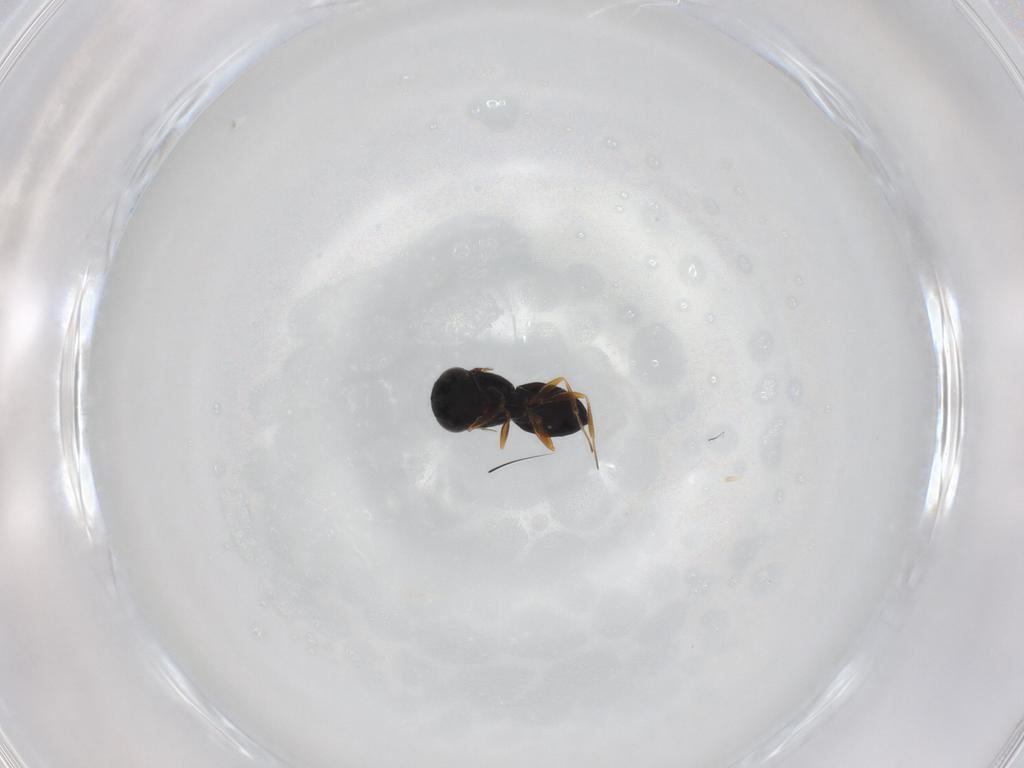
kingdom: Animalia
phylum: Arthropoda
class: Insecta
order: Hymenoptera
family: Scelionidae
